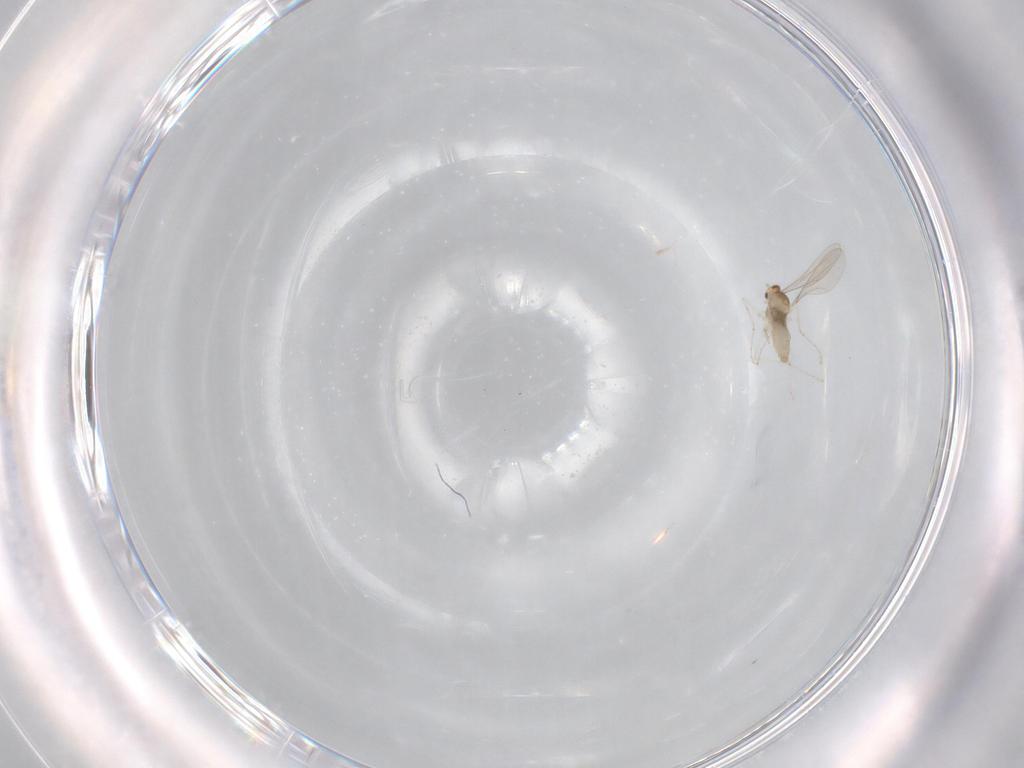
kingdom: Animalia
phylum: Arthropoda
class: Insecta
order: Diptera
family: Cecidomyiidae
